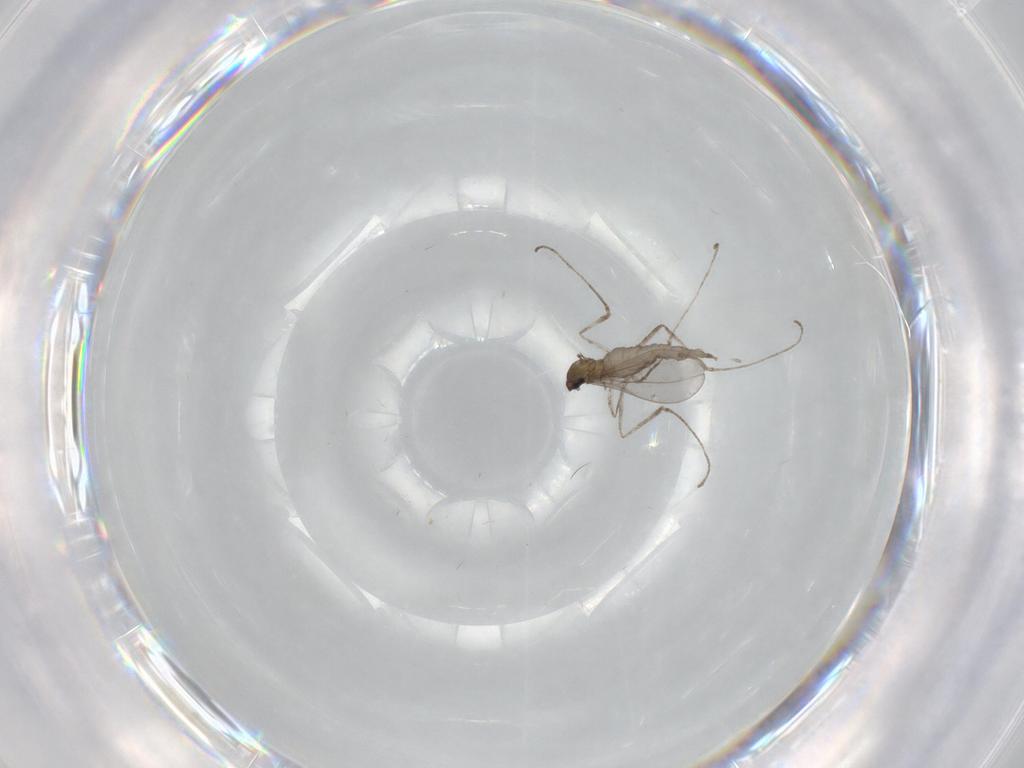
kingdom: Animalia
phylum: Arthropoda
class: Insecta
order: Diptera
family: Cecidomyiidae
